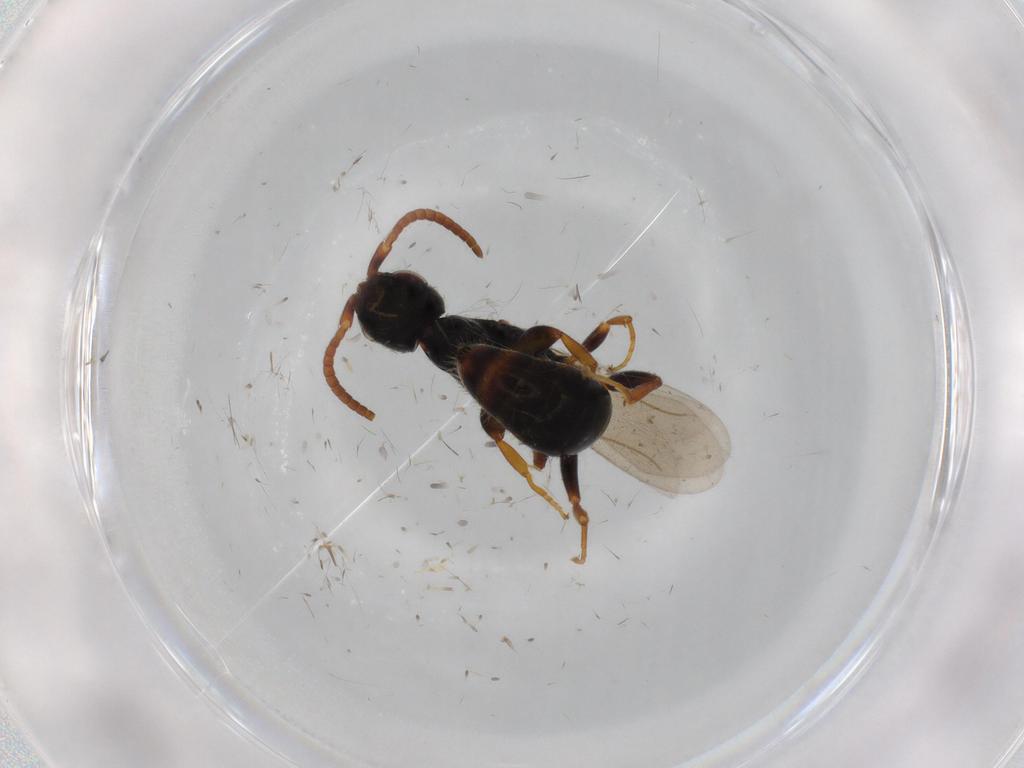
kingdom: Animalia
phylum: Arthropoda
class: Insecta
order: Hymenoptera
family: Bethylidae
